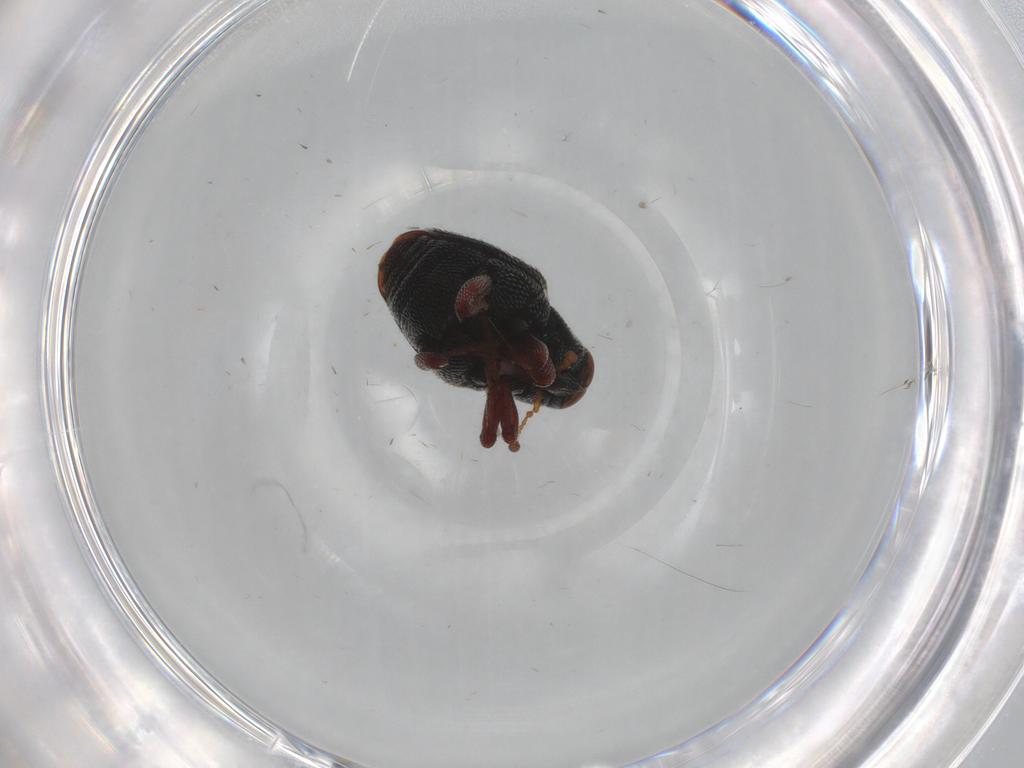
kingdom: Animalia
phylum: Arthropoda
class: Insecta
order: Coleoptera
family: Curculionidae
